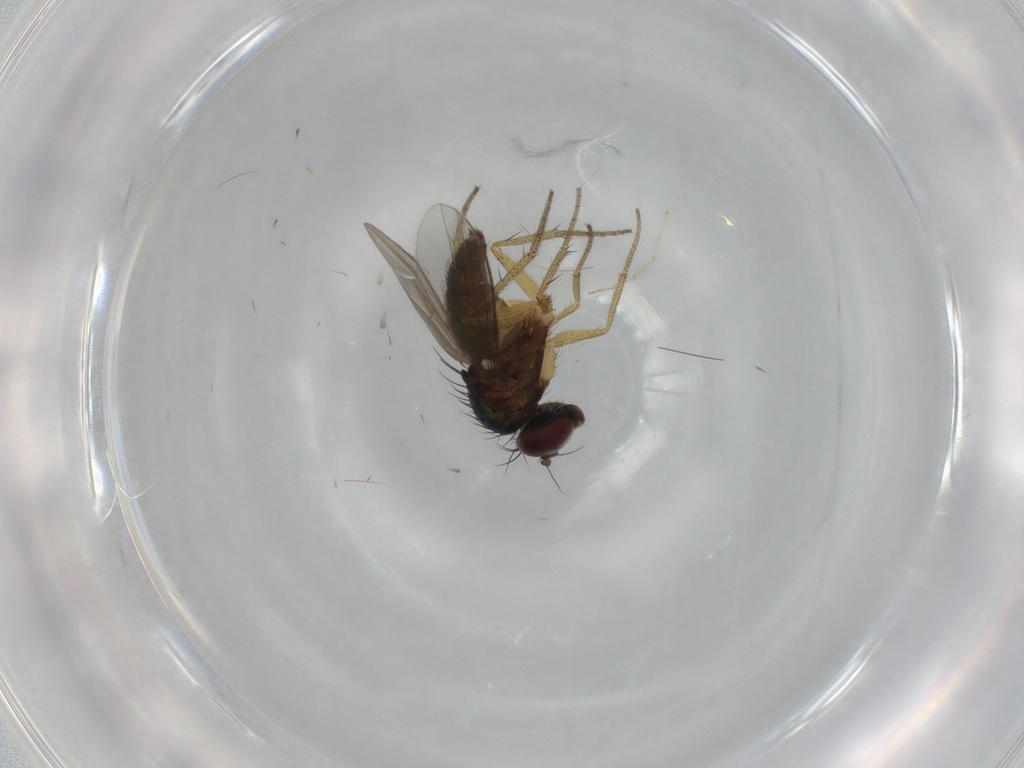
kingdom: Animalia
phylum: Arthropoda
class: Insecta
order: Diptera
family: Dolichopodidae
